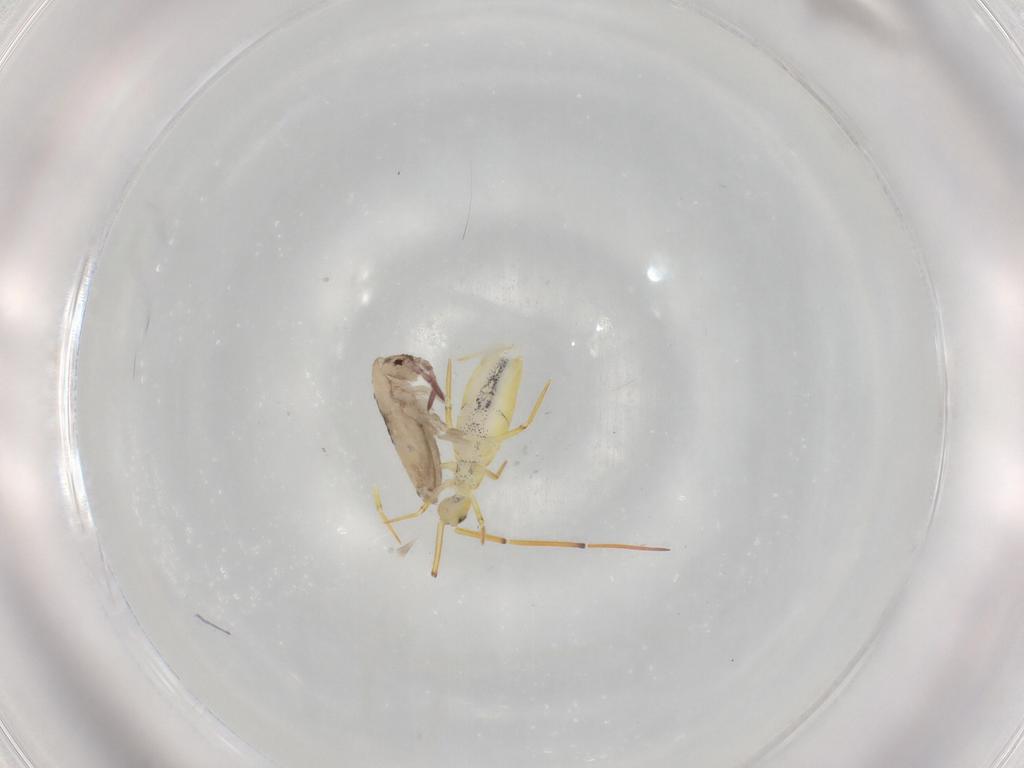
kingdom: Animalia
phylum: Arthropoda
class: Collembola
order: Entomobryomorpha
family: Entomobryidae
